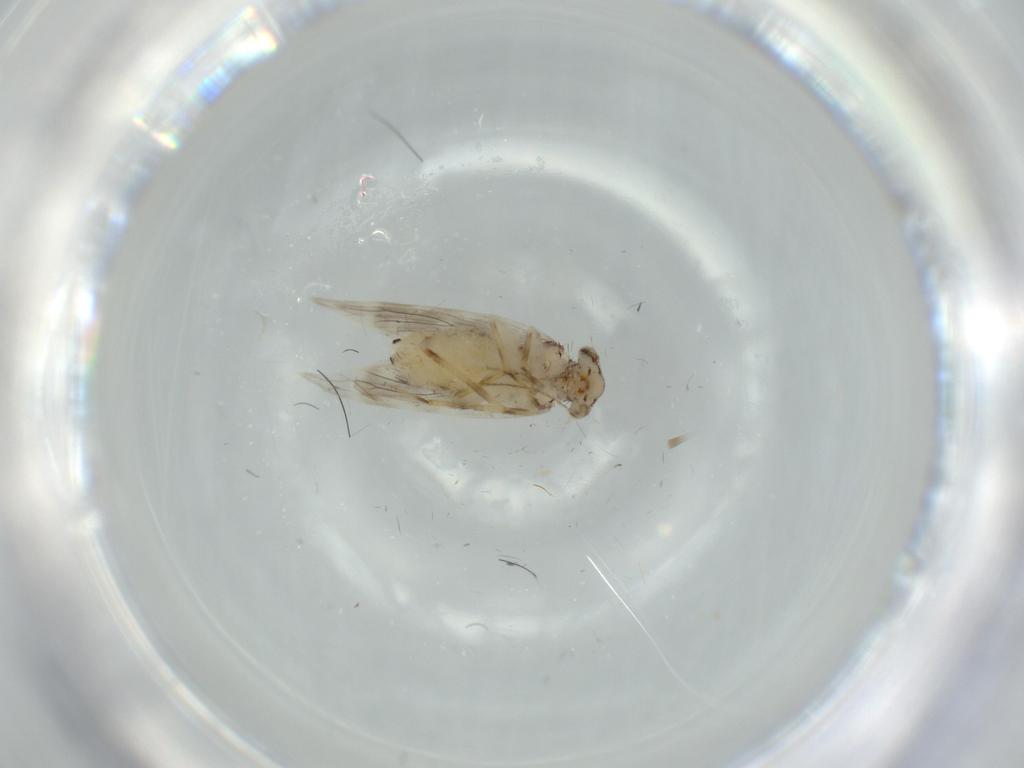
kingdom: Animalia
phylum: Arthropoda
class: Insecta
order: Psocodea
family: Lepidopsocidae
